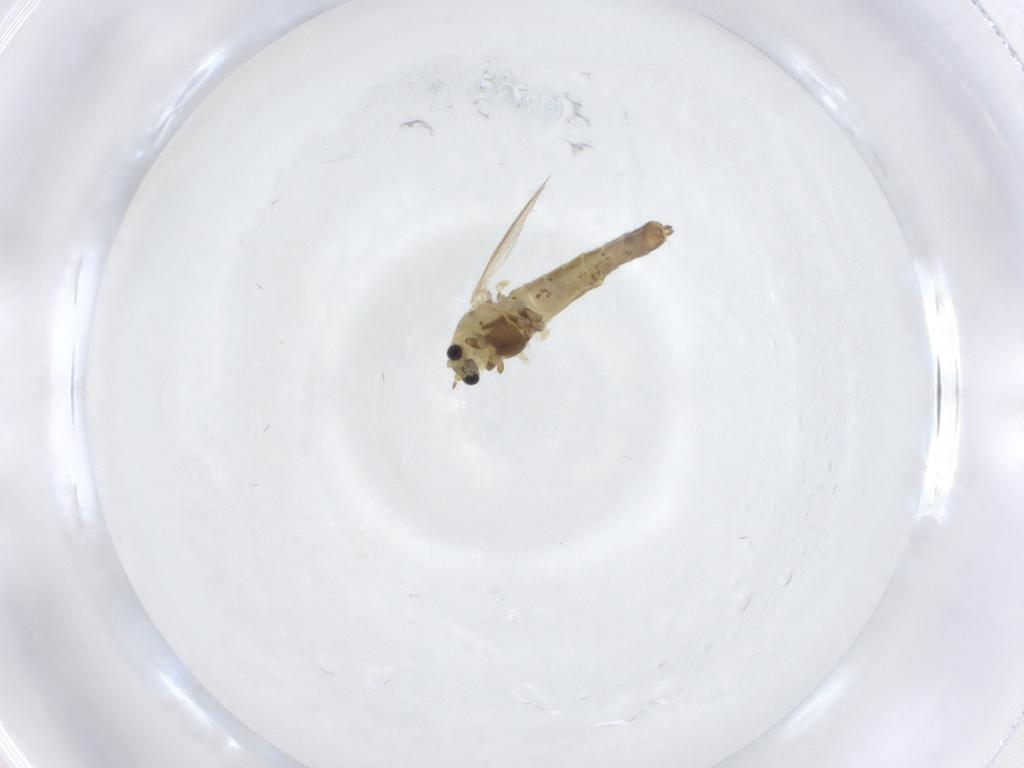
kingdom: Animalia
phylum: Arthropoda
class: Insecta
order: Diptera
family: Chironomidae
